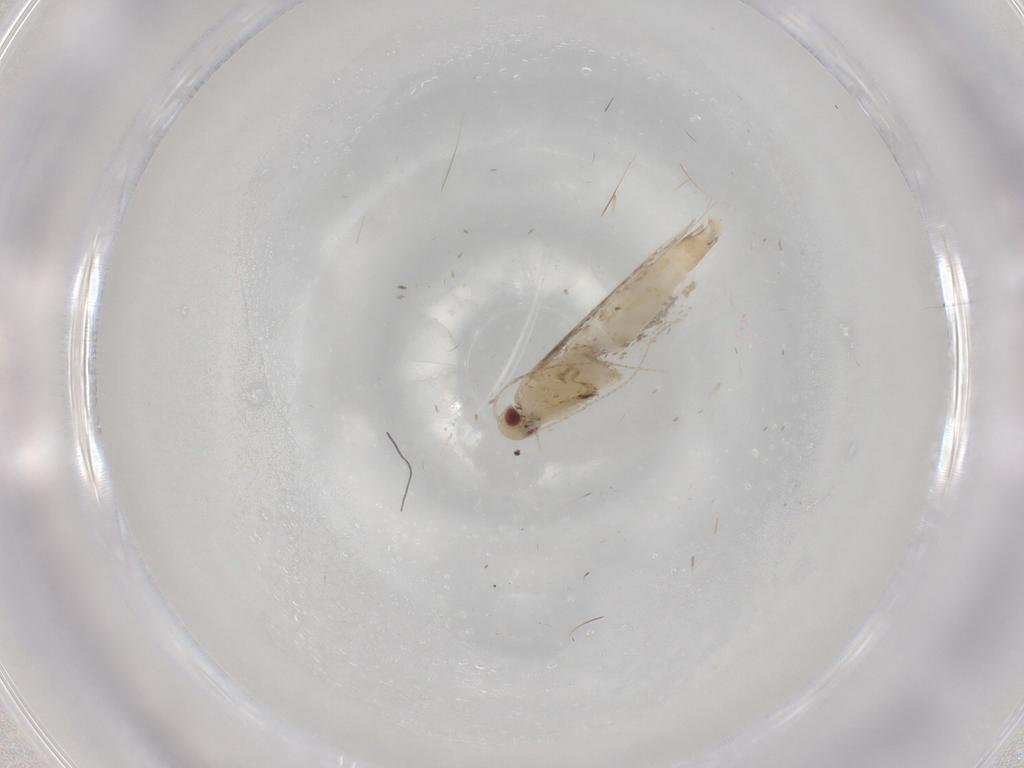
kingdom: Animalia
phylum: Arthropoda
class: Insecta
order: Lepidoptera
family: Gracillariidae
